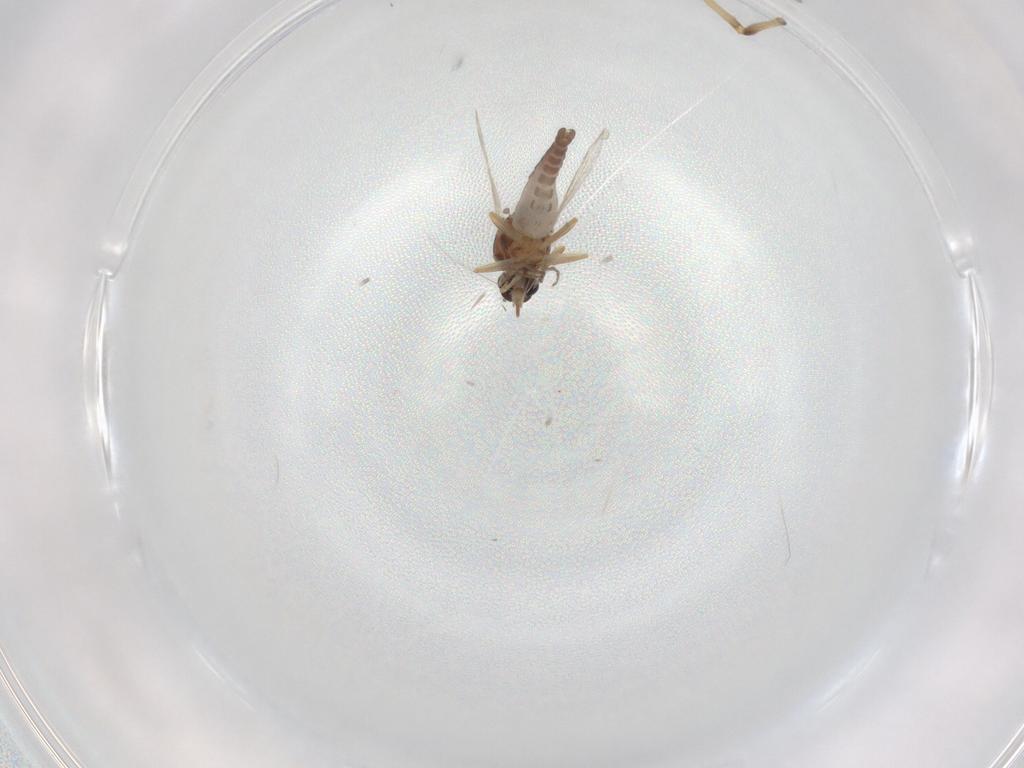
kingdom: Animalia
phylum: Arthropoda
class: Insecta
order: Diptera
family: Ceratopogonidae
